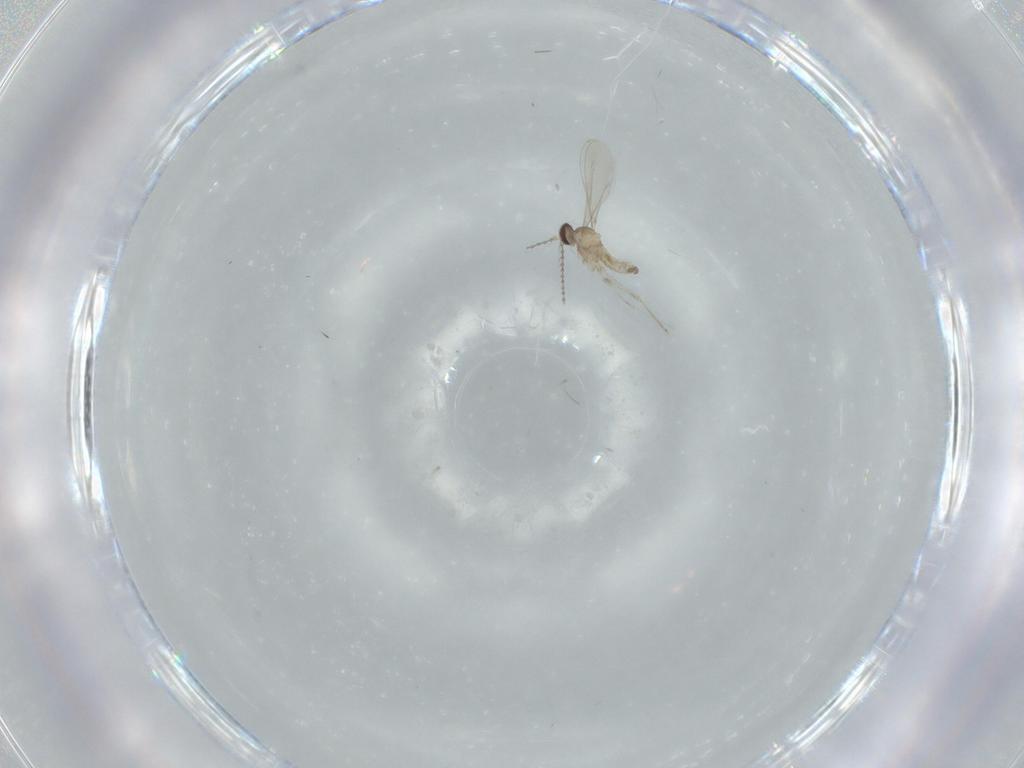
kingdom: Animalia
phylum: Arthropoda
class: Insecta
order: Diptera
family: Cecidomyiidae
